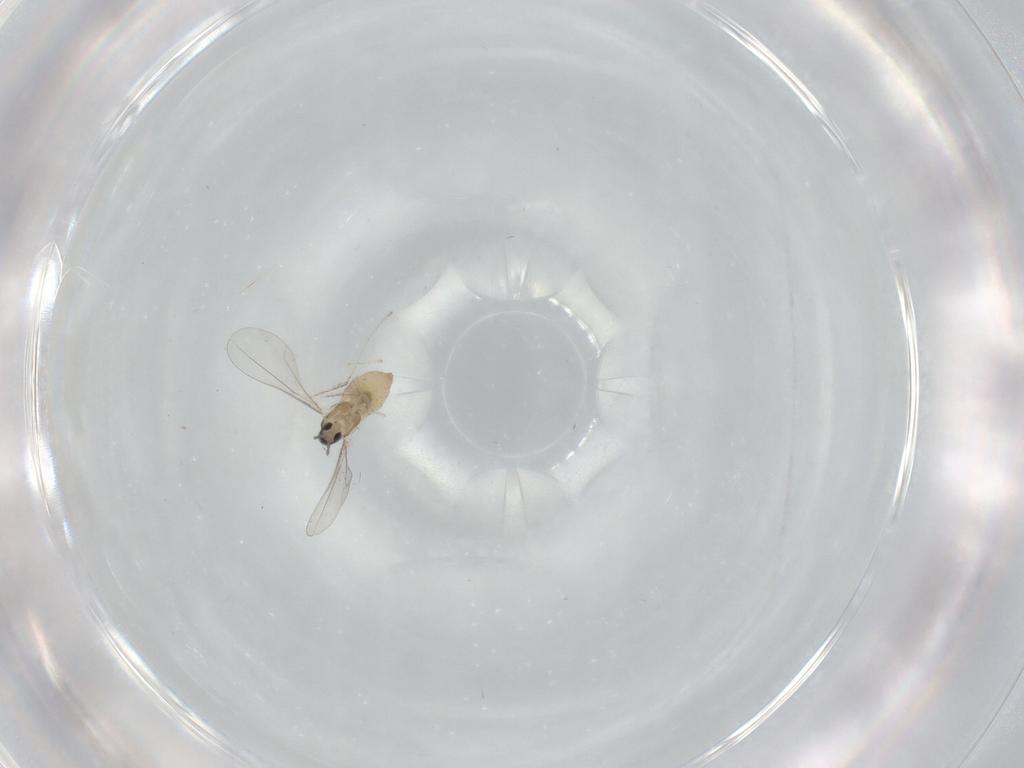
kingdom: Animalia
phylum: Arthropoda
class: Insecta
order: Diptera
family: Cecidomyiidae
